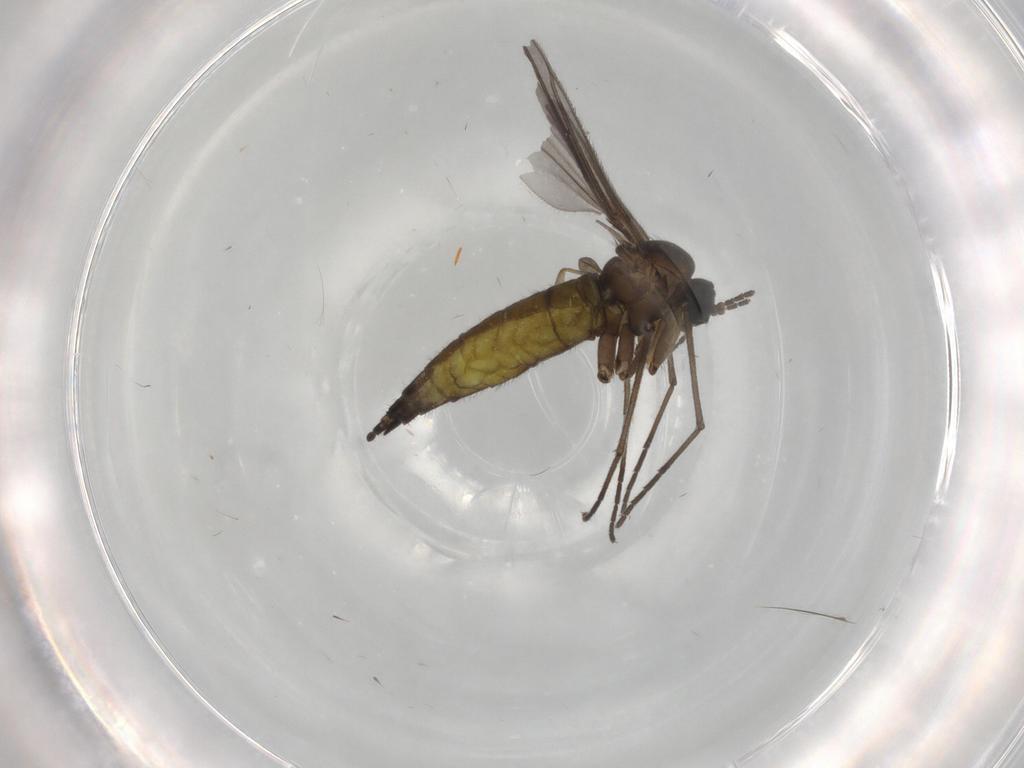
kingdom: Animalia
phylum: Arthropoda
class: Insecta
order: Diptera
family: Sciaridae
